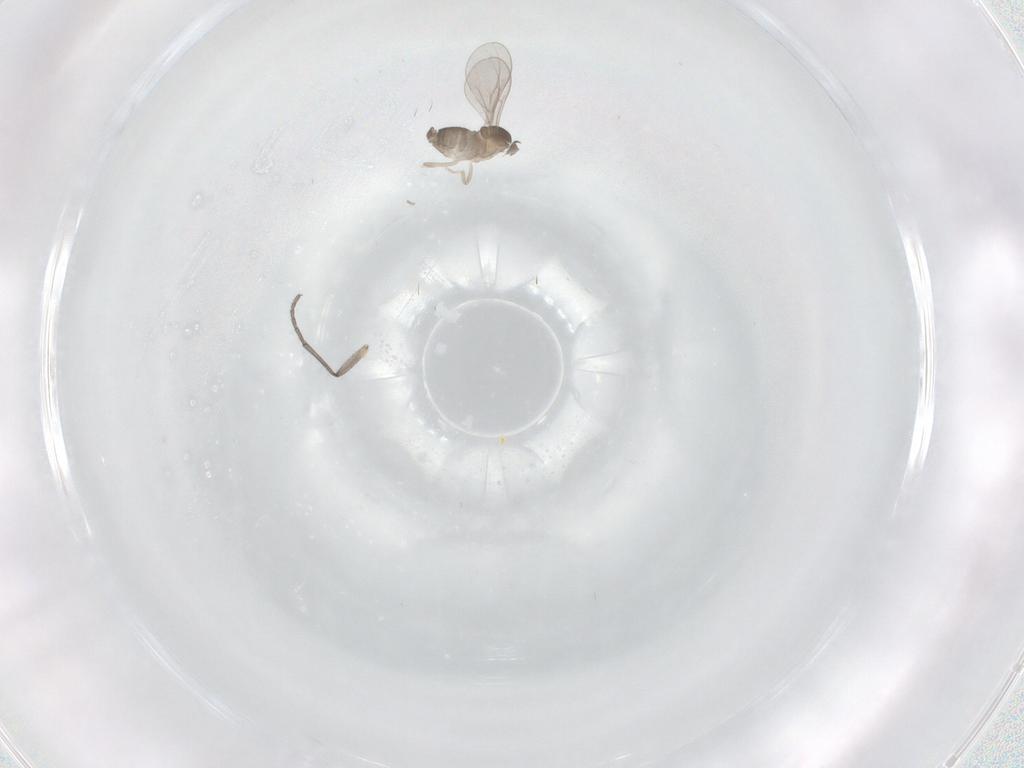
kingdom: Animalia
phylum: Arthropoda
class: Insecta
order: Diptera
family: Cecidomyiidae
